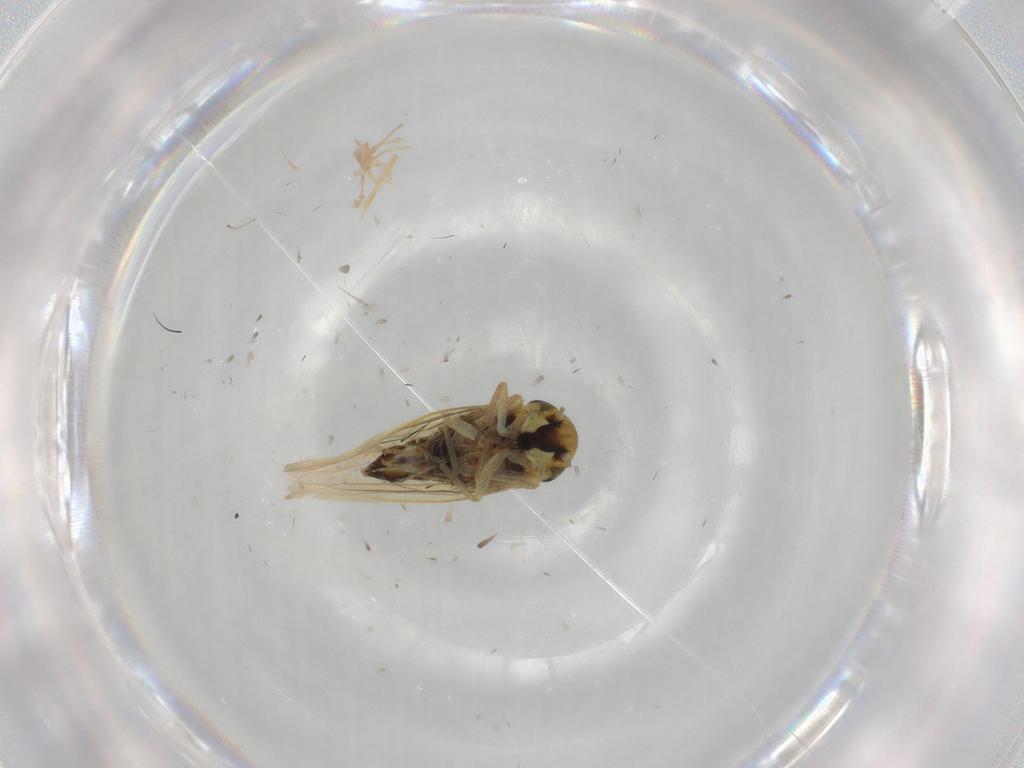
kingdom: Animalia
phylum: Arthropoda
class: Insecta
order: Hemiptera
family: Cicadellidae
